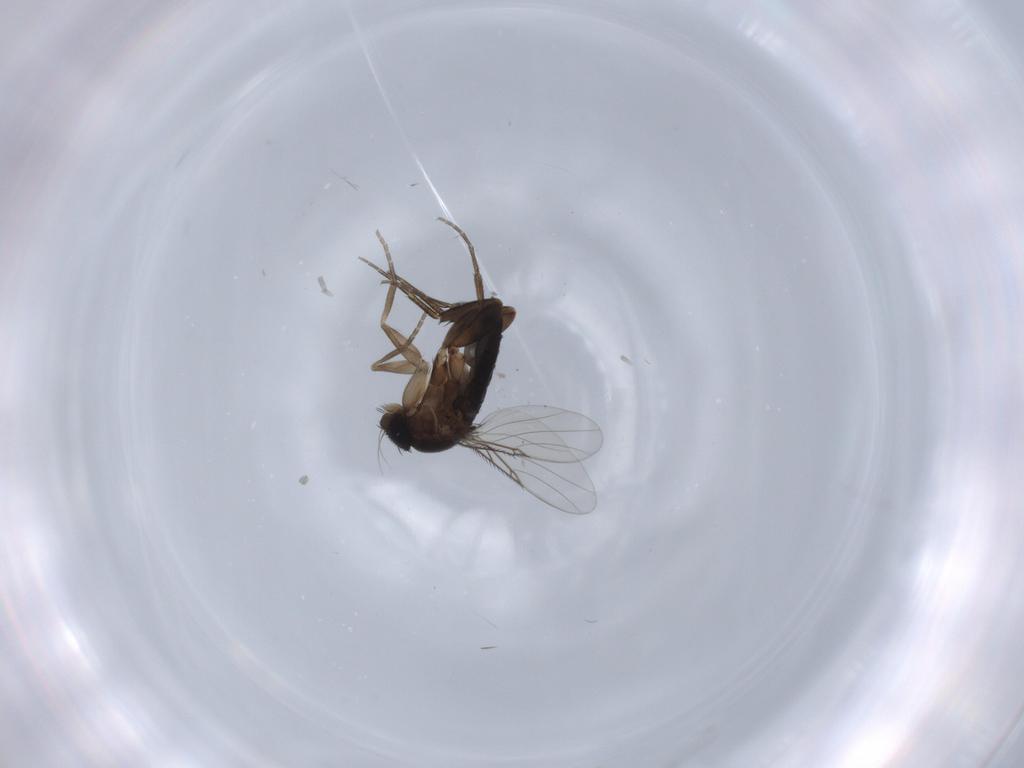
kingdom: Animalia
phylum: Arthropoda
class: Insecta
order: Diptera
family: Phoridae
